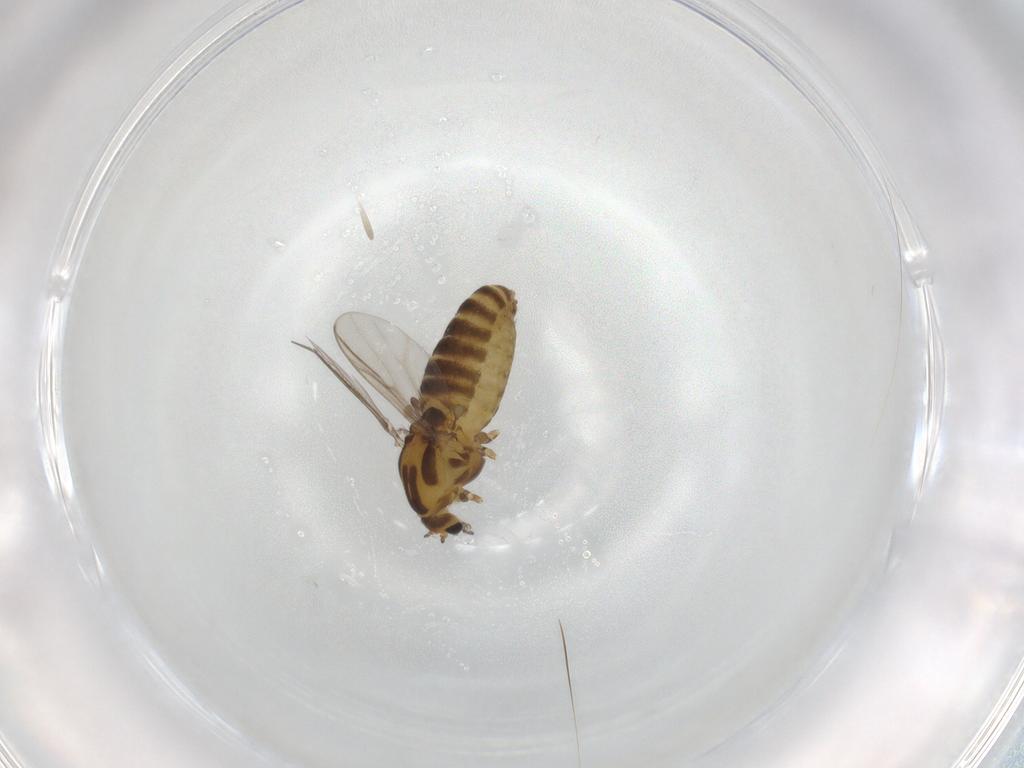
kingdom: Animalia
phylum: Arthropoda
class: Insecta
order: Diptera
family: Chironomidae
